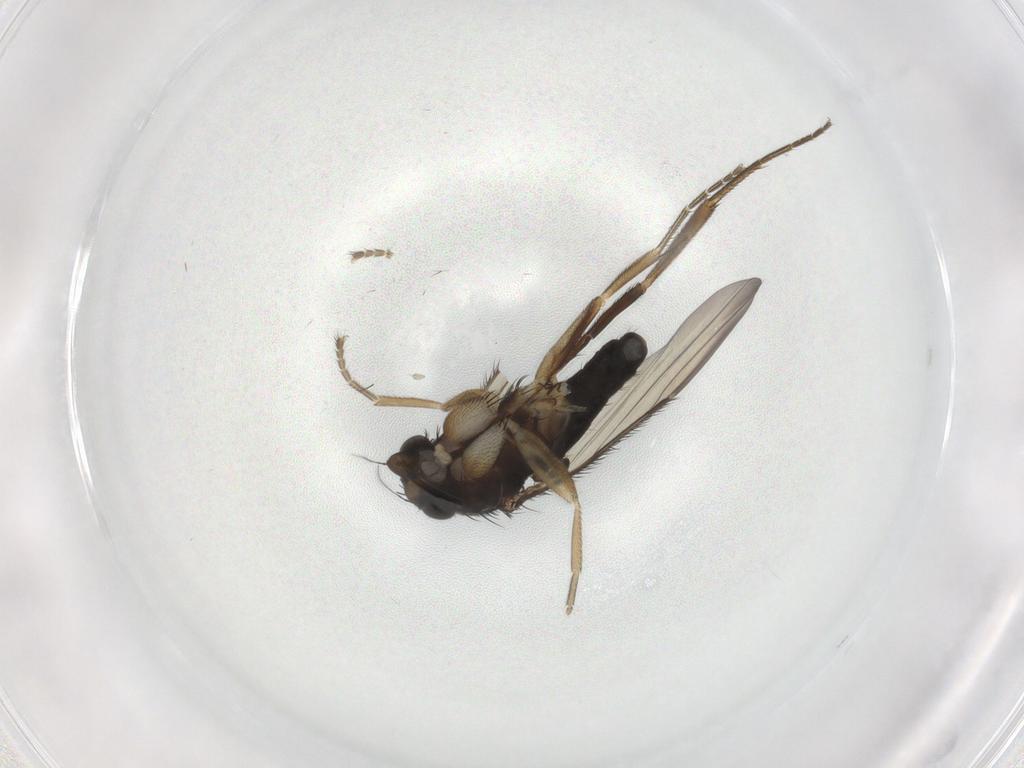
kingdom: Animalia
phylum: Arthropoda
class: Insecta
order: Diptera
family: Phoridae
